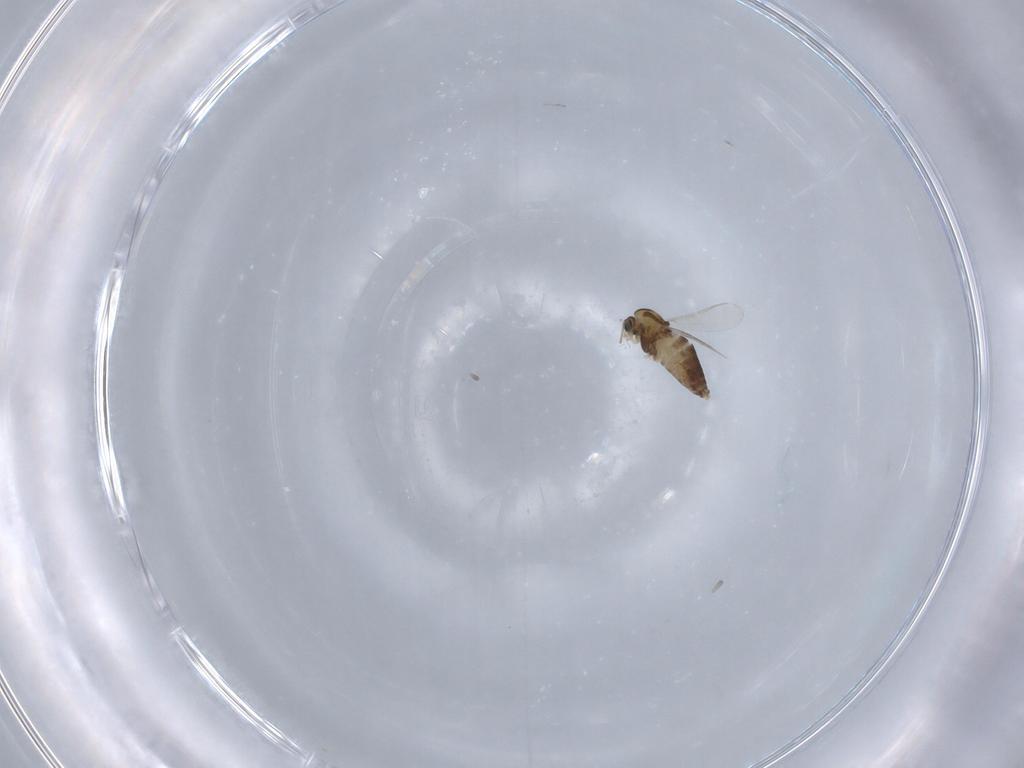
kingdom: Animalia
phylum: Arthropoda
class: Insecta
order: Diptera
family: Chironomidae
